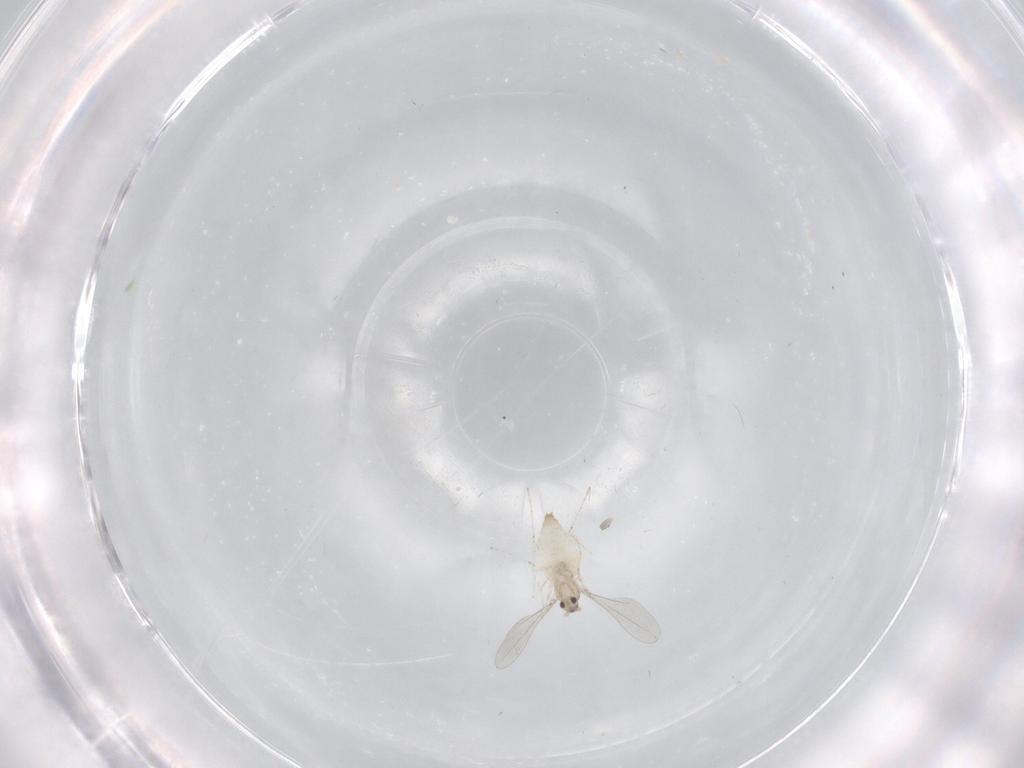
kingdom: Animalia
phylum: Arthropoda
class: Insecta
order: Diptera
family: Cecidomyiidae
